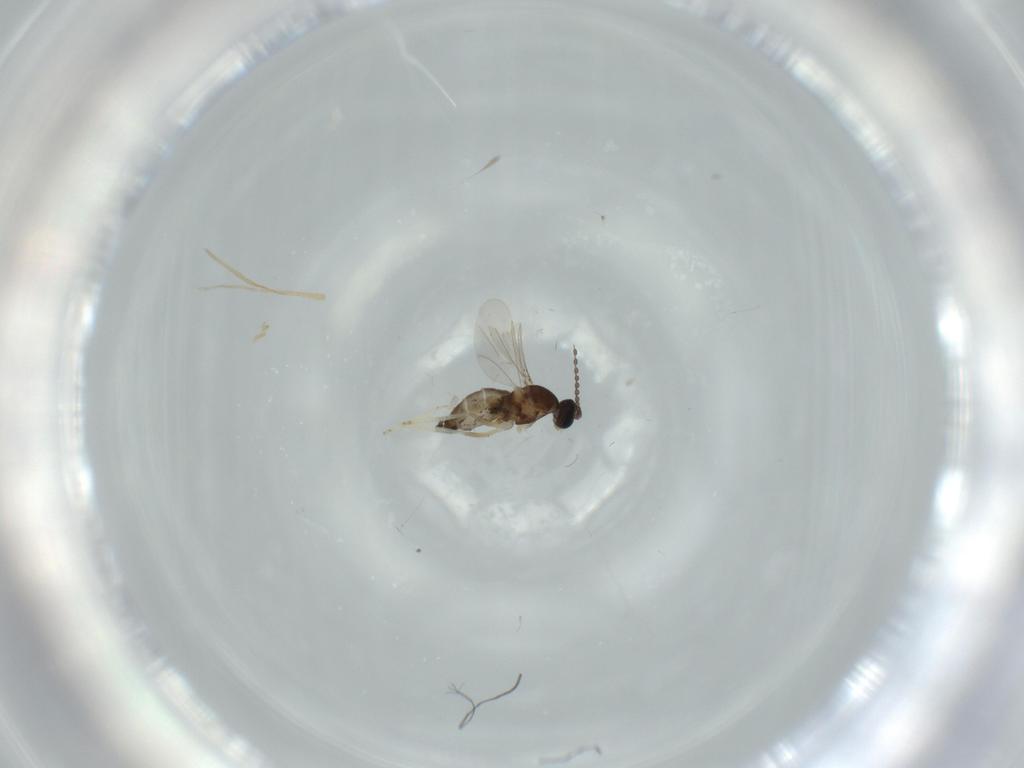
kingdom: Animalia
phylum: Arthropoda
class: Insecta
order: Diptera
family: Cecidomyiidae
